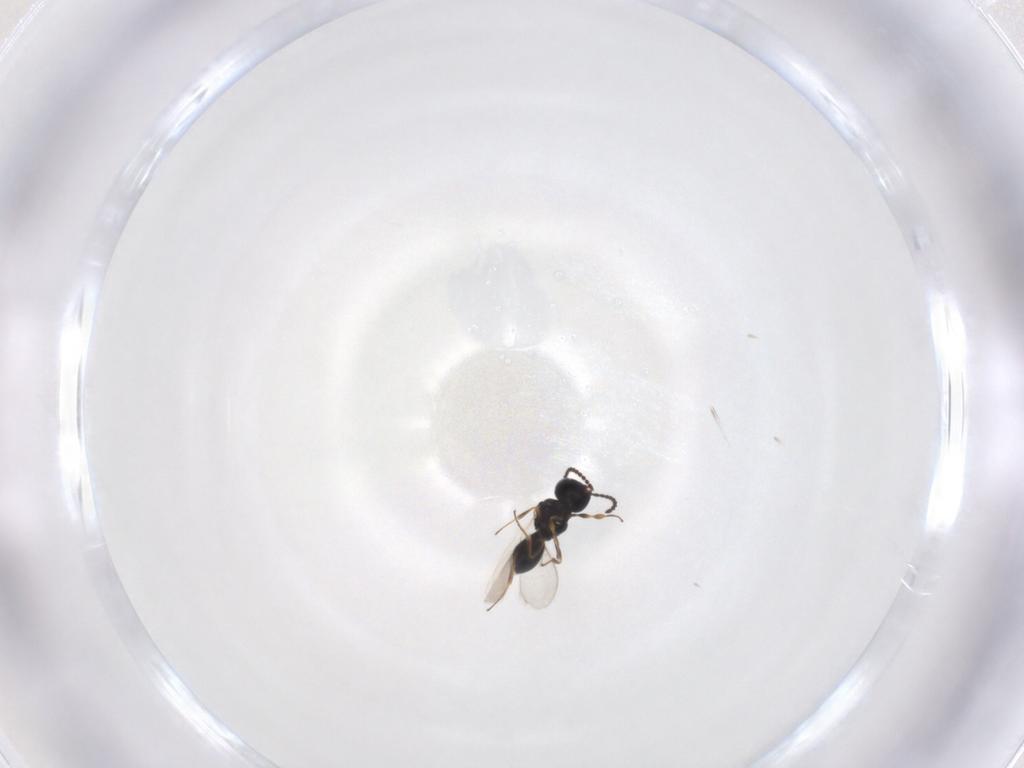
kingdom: Animalia
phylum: Arthropoda
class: Insecta
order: Hymenoptera
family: Scelionidae
